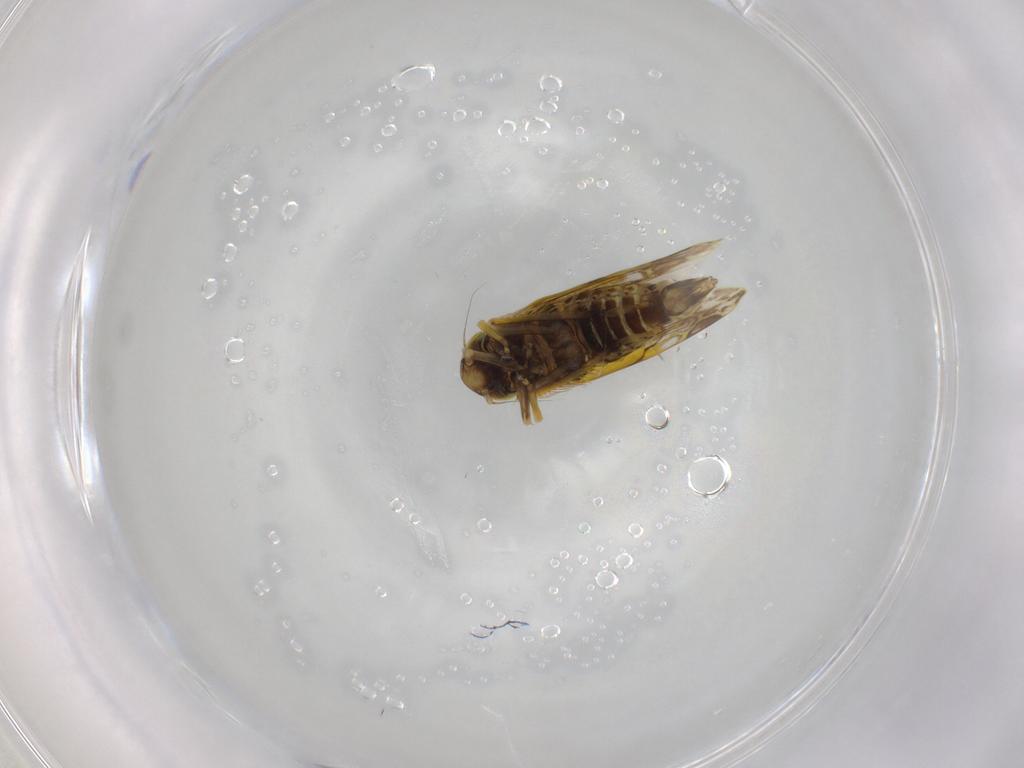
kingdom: Animalia
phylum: Arthropoda
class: Insecta
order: Hemiptera
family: Cicadellidae
